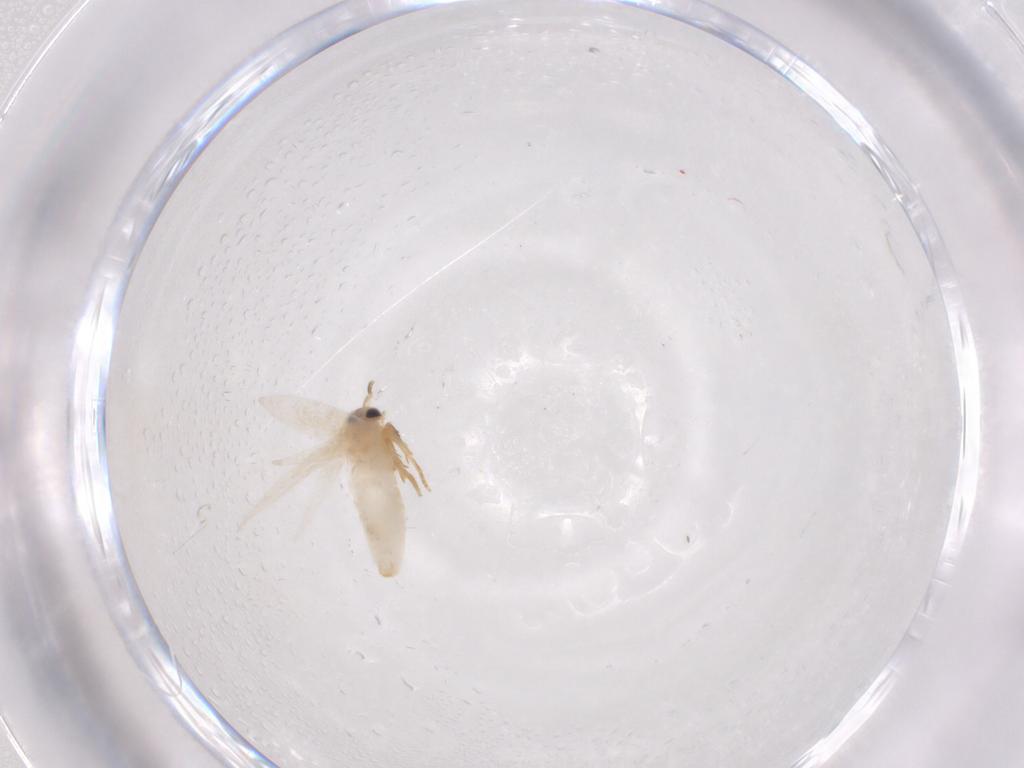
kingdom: Animalia
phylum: Arthropoda
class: Insecta
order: Lepidoptera
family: Nepticulidae
